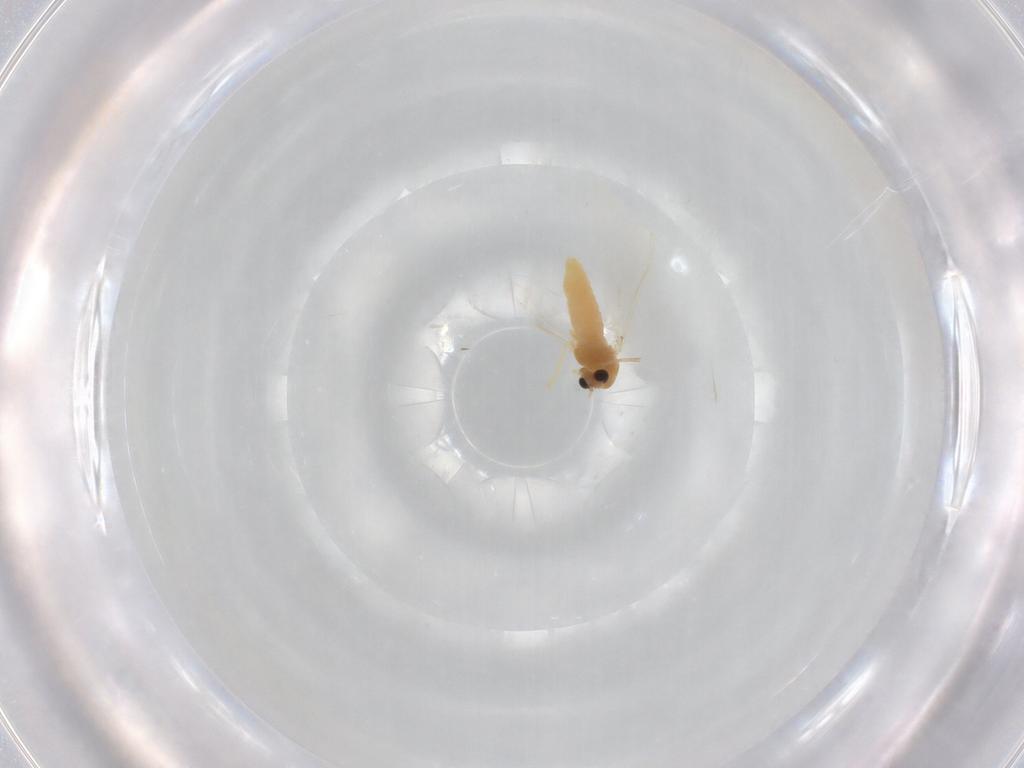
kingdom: Animalia
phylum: Arthropoda
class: Insecta
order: Diptera
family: Chironomidae
